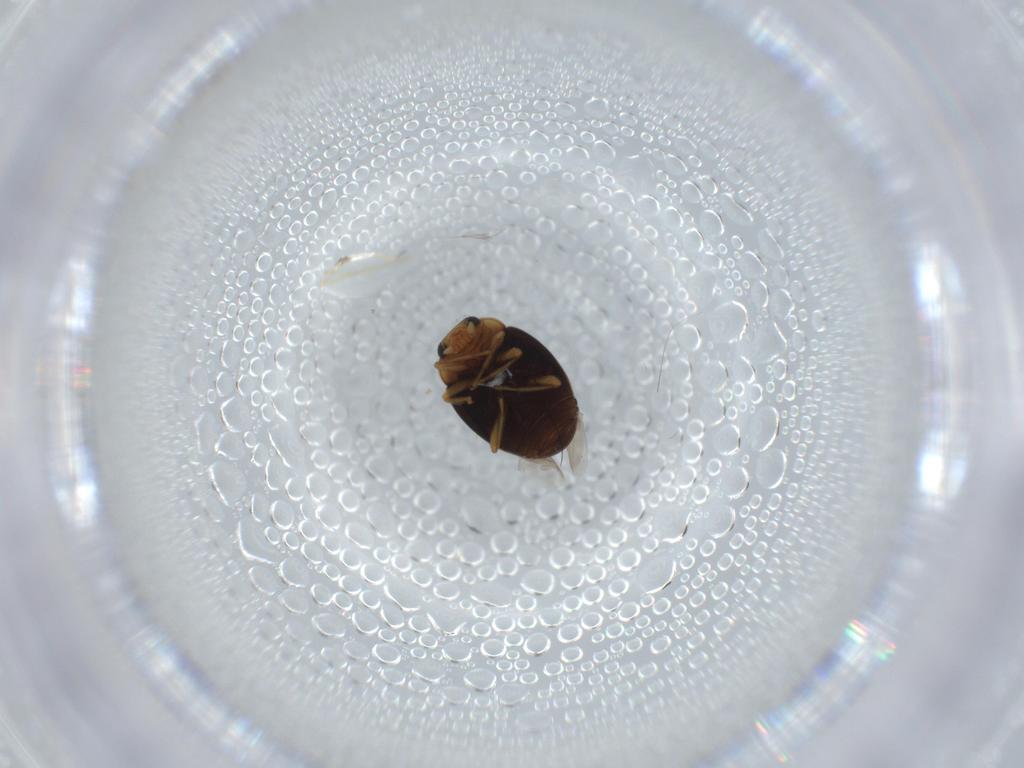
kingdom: Animalia
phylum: Arthropoda
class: Insecta
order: Coleoptera
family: Coccinellidae
